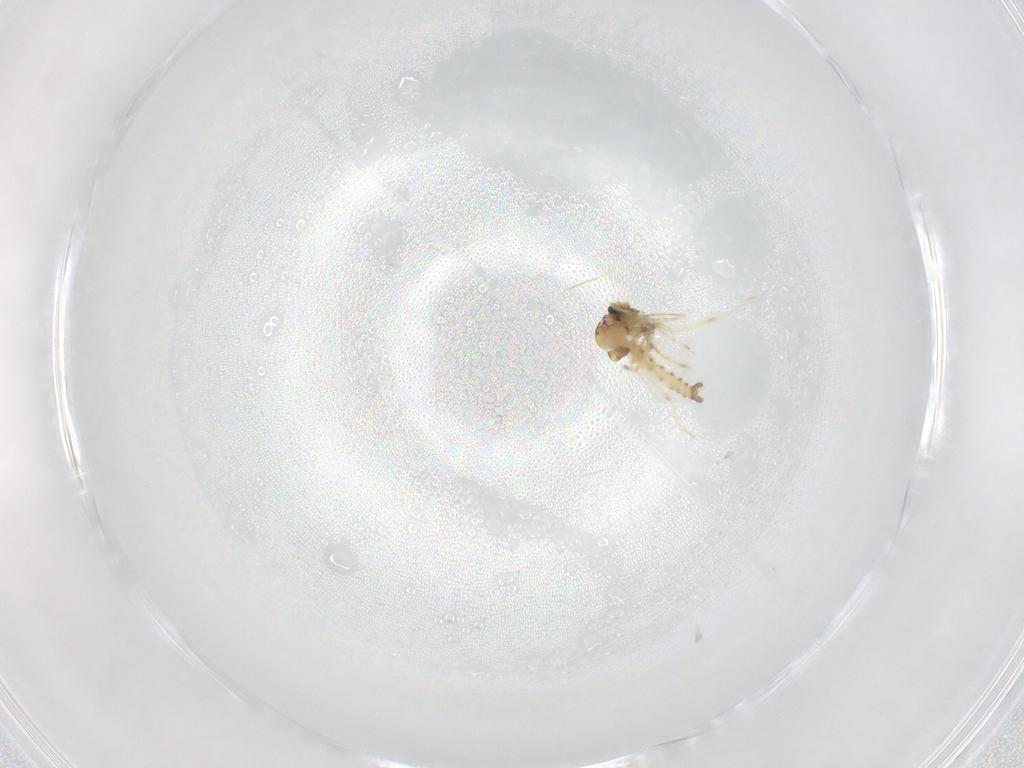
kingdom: Animalia
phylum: Arthropoda
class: Insecta
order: Diptera
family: Ceratopogonidae
